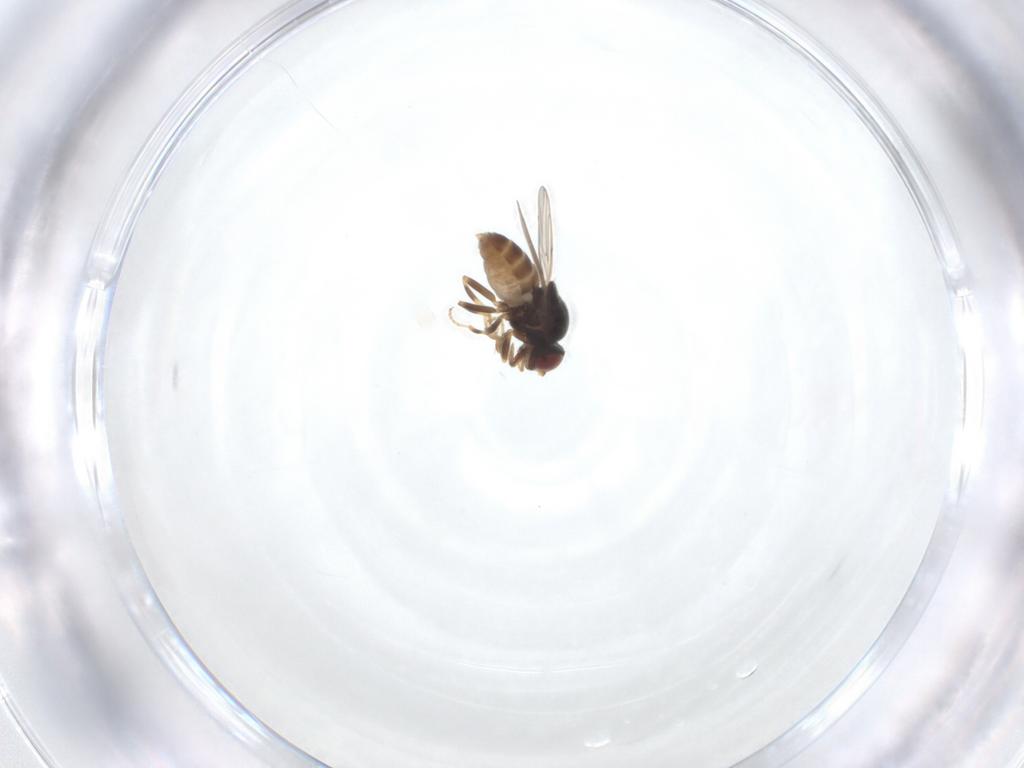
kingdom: Animalia
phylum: Arthropoda
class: Insecta
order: Diptera
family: Chloropidae
